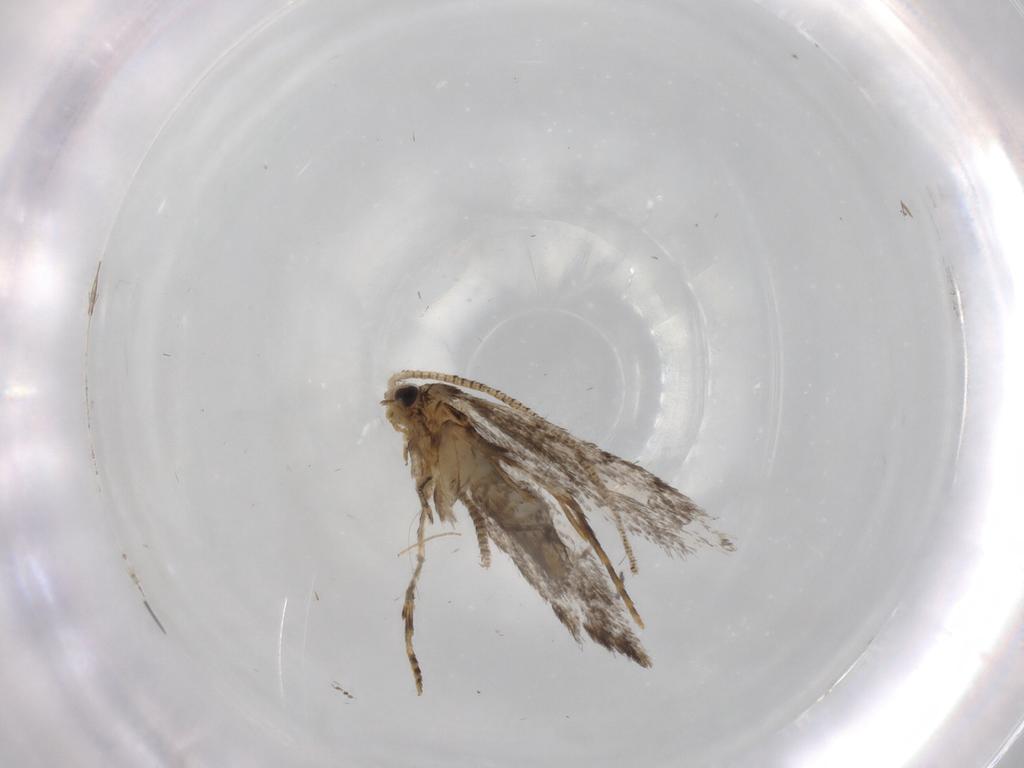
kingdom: Animalia
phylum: Arthropoda
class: Insecta
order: Lepidoptera
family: Tineidae
